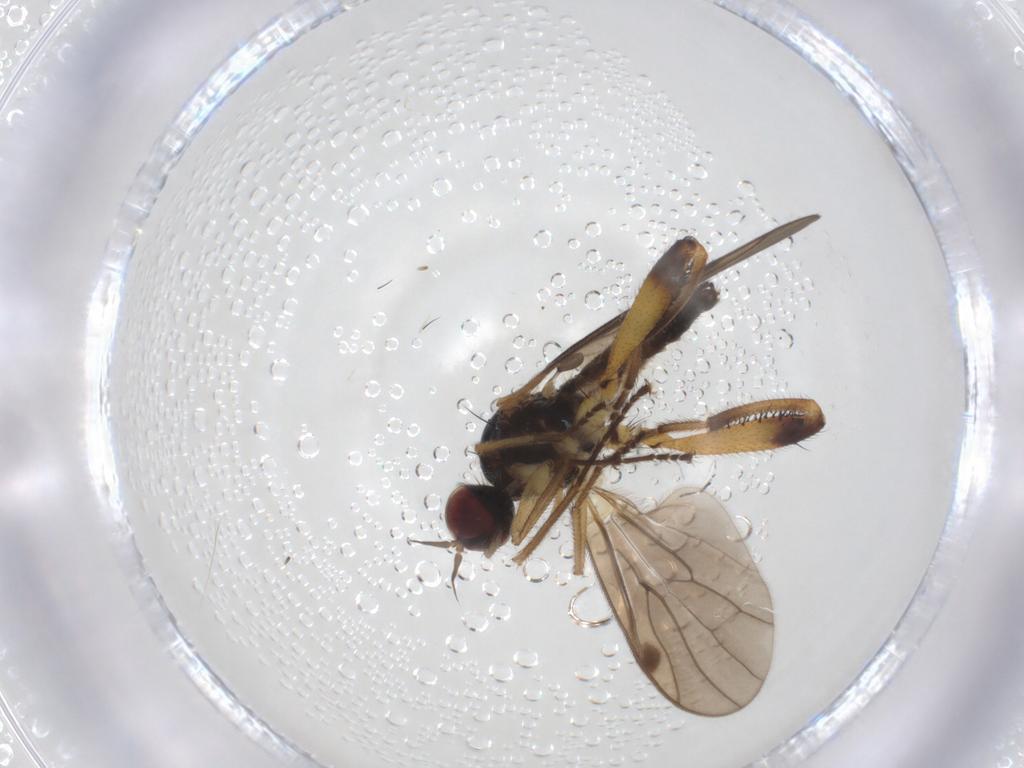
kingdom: Animalia
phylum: Arthropoda
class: Insecta
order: Diptera
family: Hybotidae
